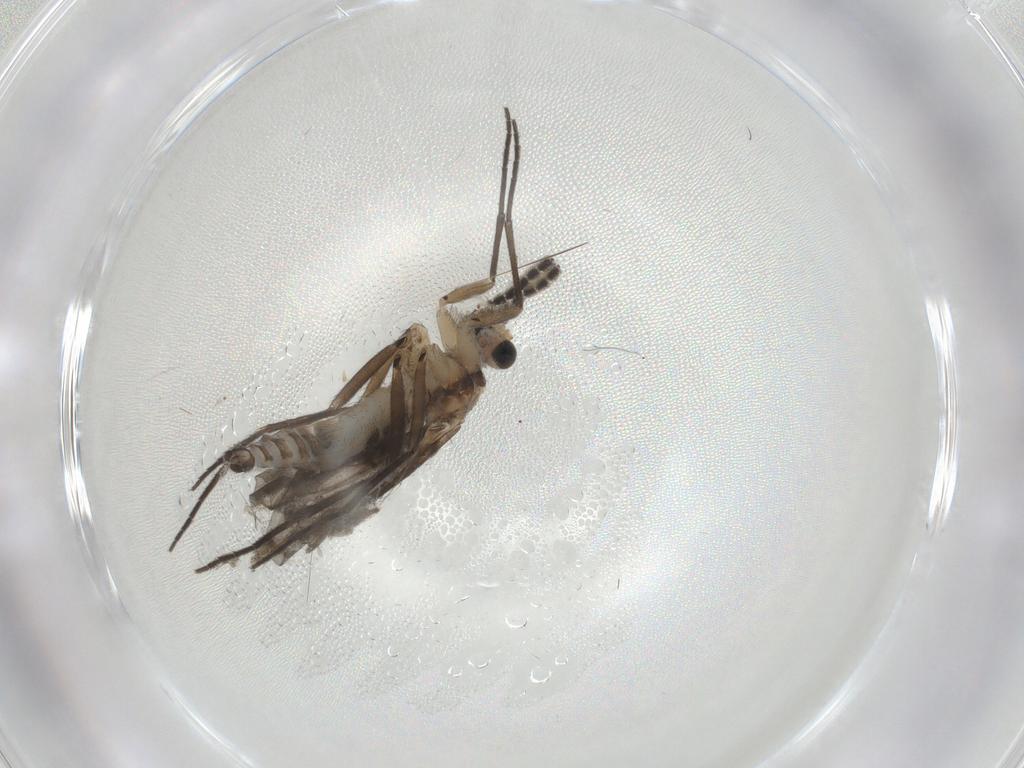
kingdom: Animalia
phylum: Arthropoda
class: Insecta
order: Diptera
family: Sciaridae
